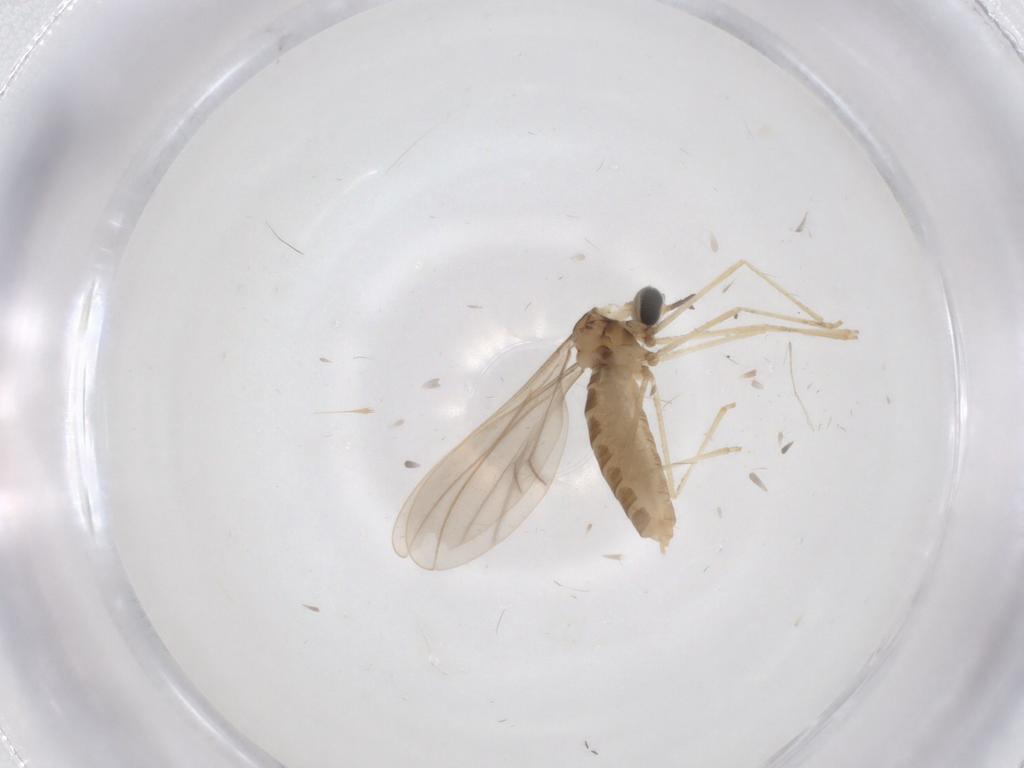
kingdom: Animalia
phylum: Arthropoda
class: Insecta
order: Diptera
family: Cecidomyiidae
